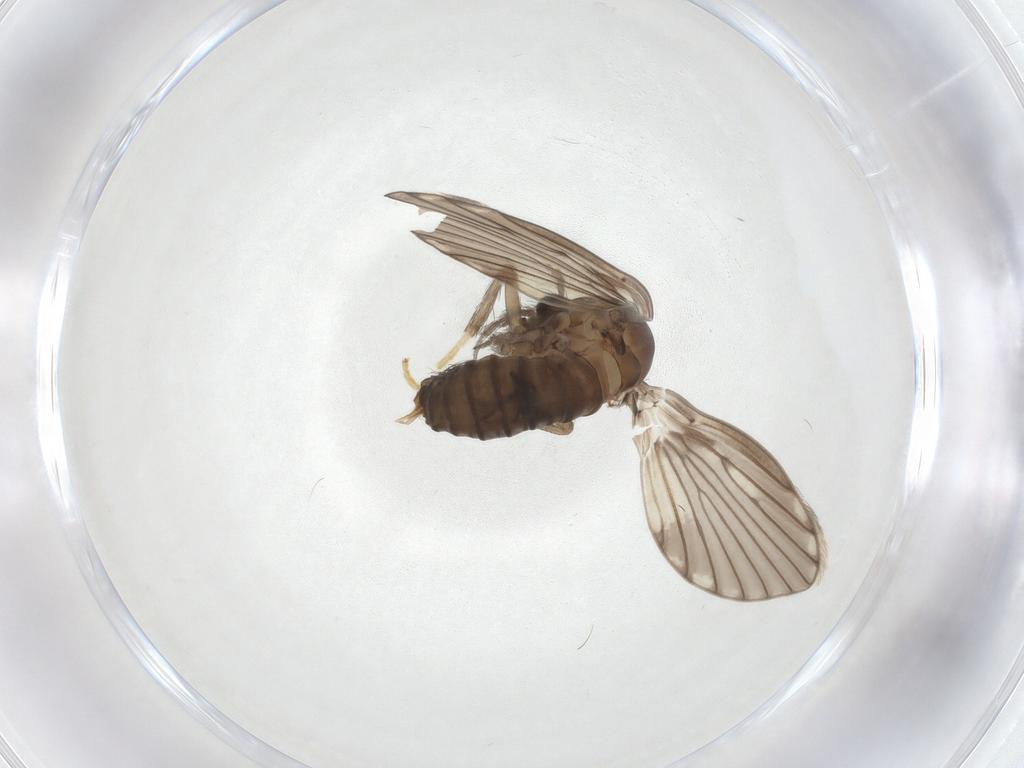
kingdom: Animalia
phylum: Arthropoda
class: Insecta
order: Diptera
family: Psychodidae
